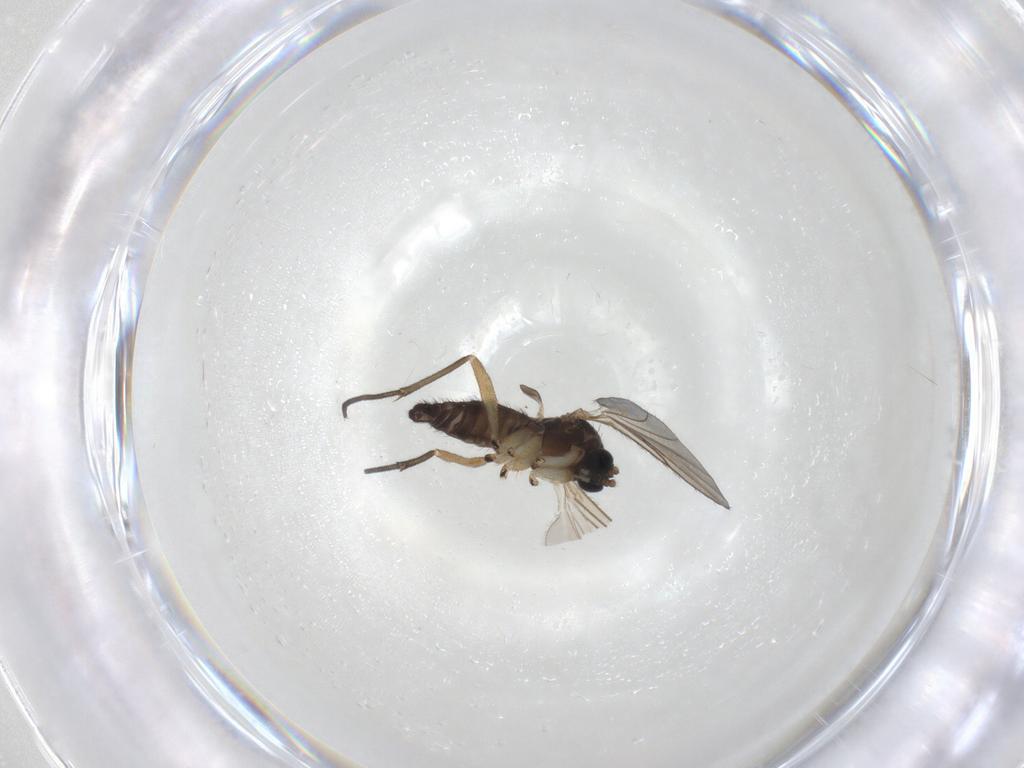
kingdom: Animalia
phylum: Arthropoda
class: Insecta
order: Diptera
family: Sciaridae
